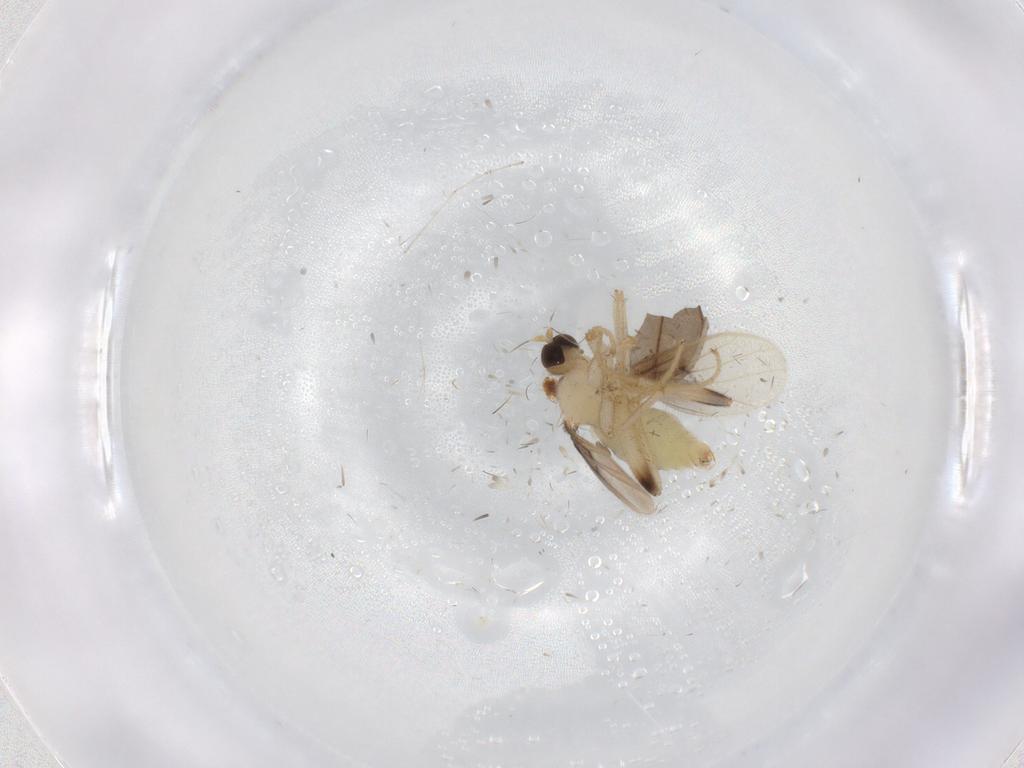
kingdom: Animalia
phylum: Arthropoda
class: Insecta
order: Diptera
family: Hybotidae
